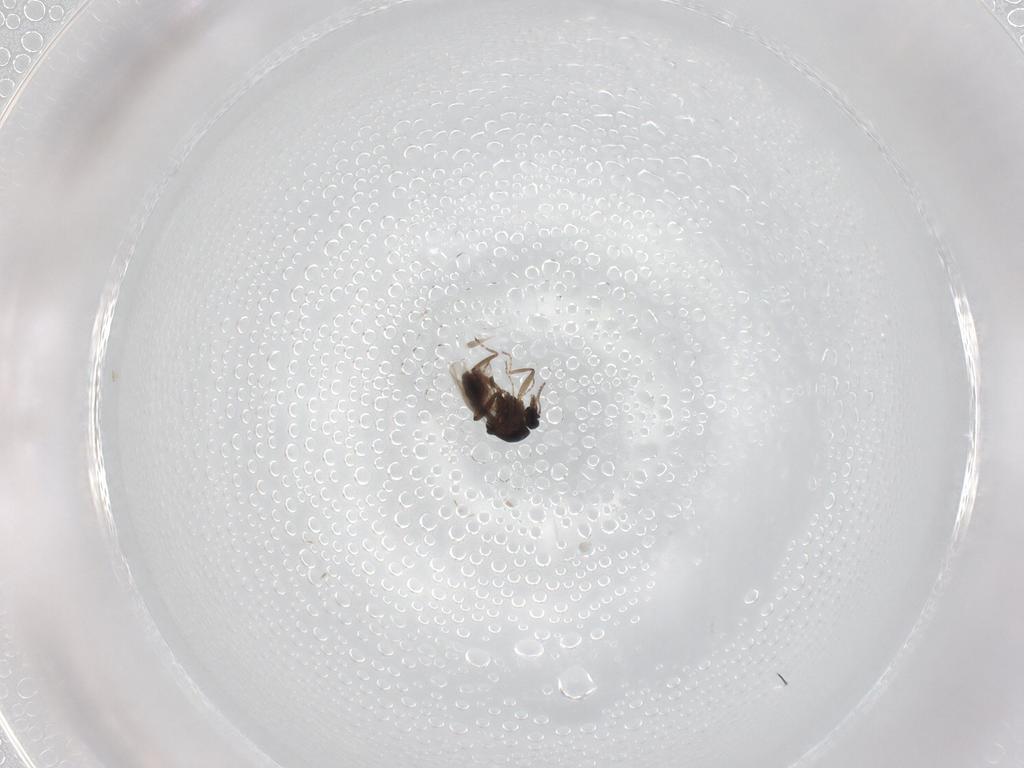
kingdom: Animalia
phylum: Arthropoda
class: Insecta
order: Diptera
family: Ceratopogonidae
